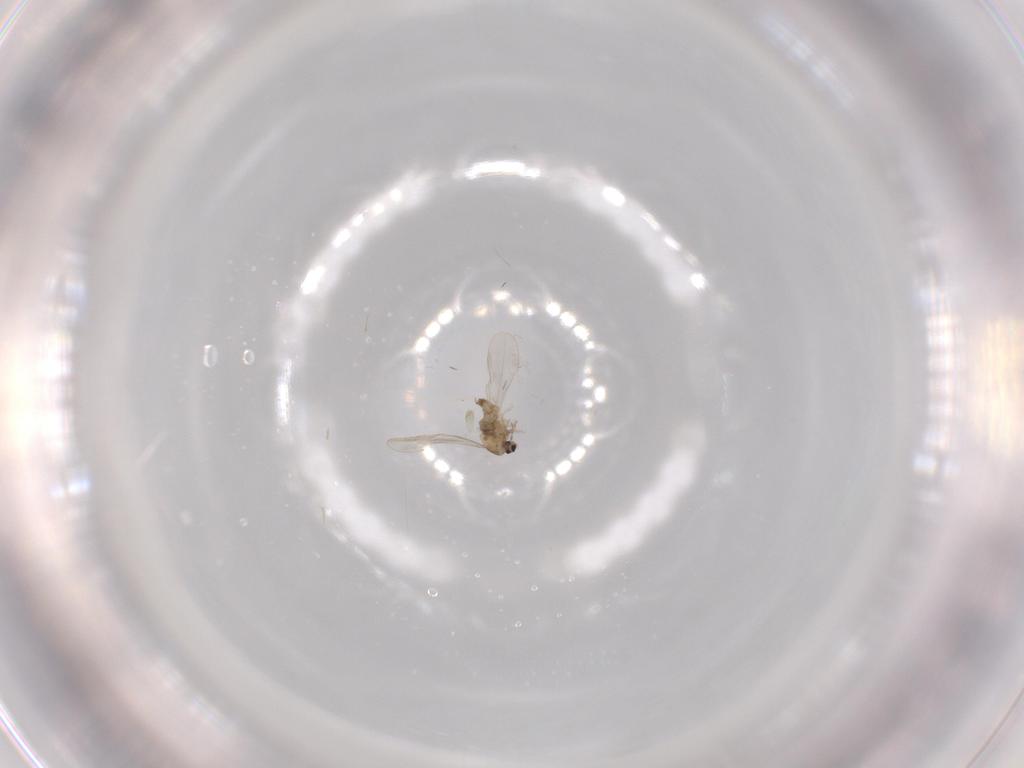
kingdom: Animalia
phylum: Arthropoda
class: Insecta
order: Diptera
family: Cecidomyiidae
